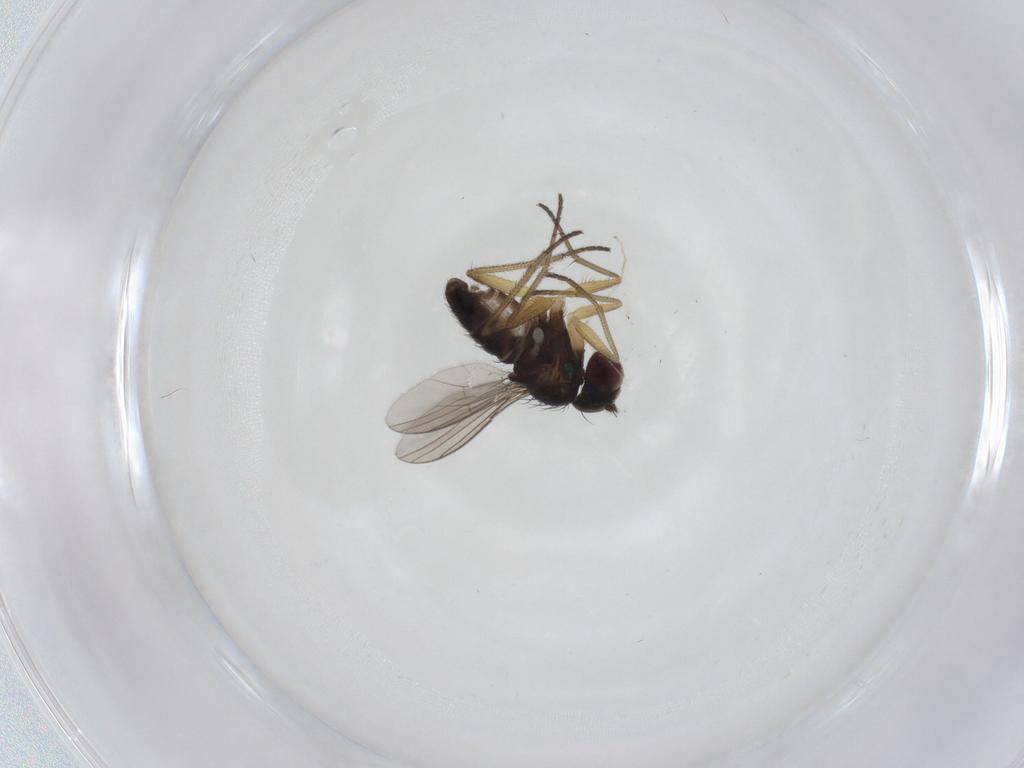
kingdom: Animalia
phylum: Arthropoda
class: Insecta
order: Diptera
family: Dolichopodidae
